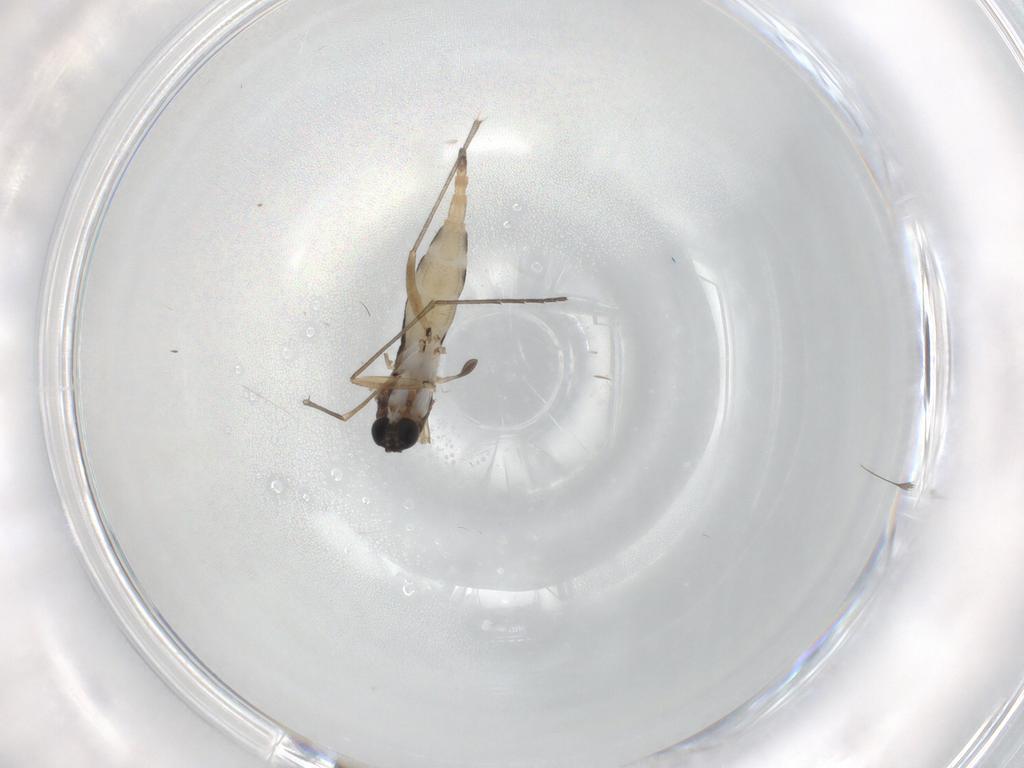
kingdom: Animalia
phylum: Arthropoda
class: Insecta
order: Diptera
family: Sciaridae
